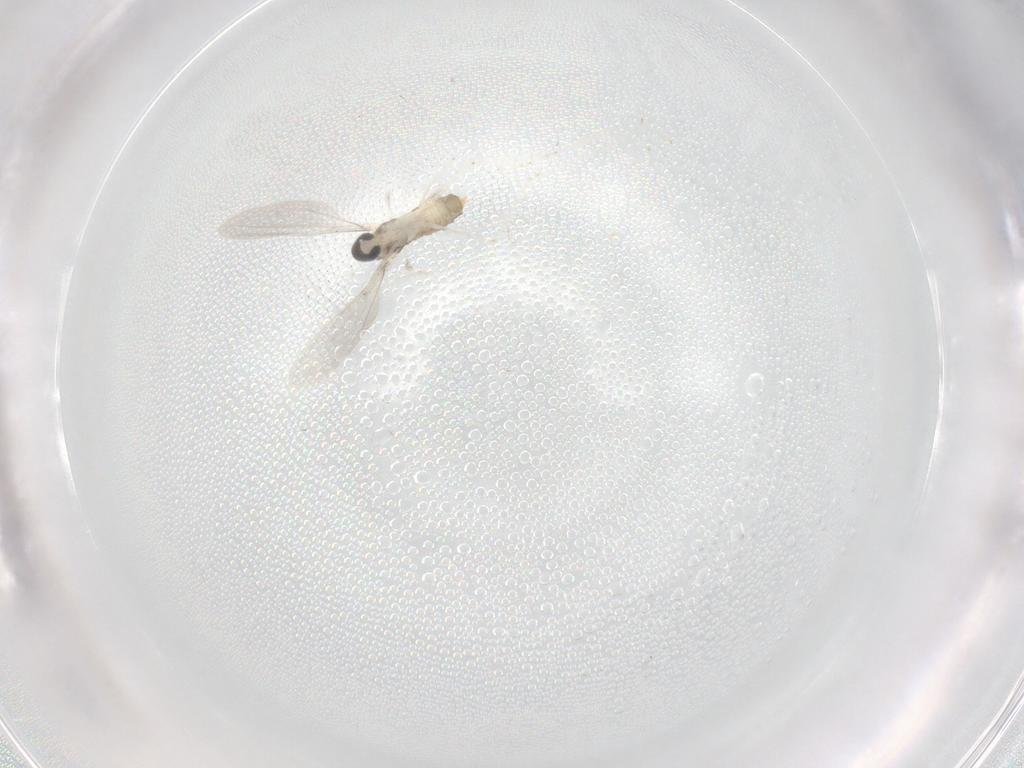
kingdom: Animalia
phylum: Arthropoda
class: Insecta
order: Diptera
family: Cecidomyiidae
